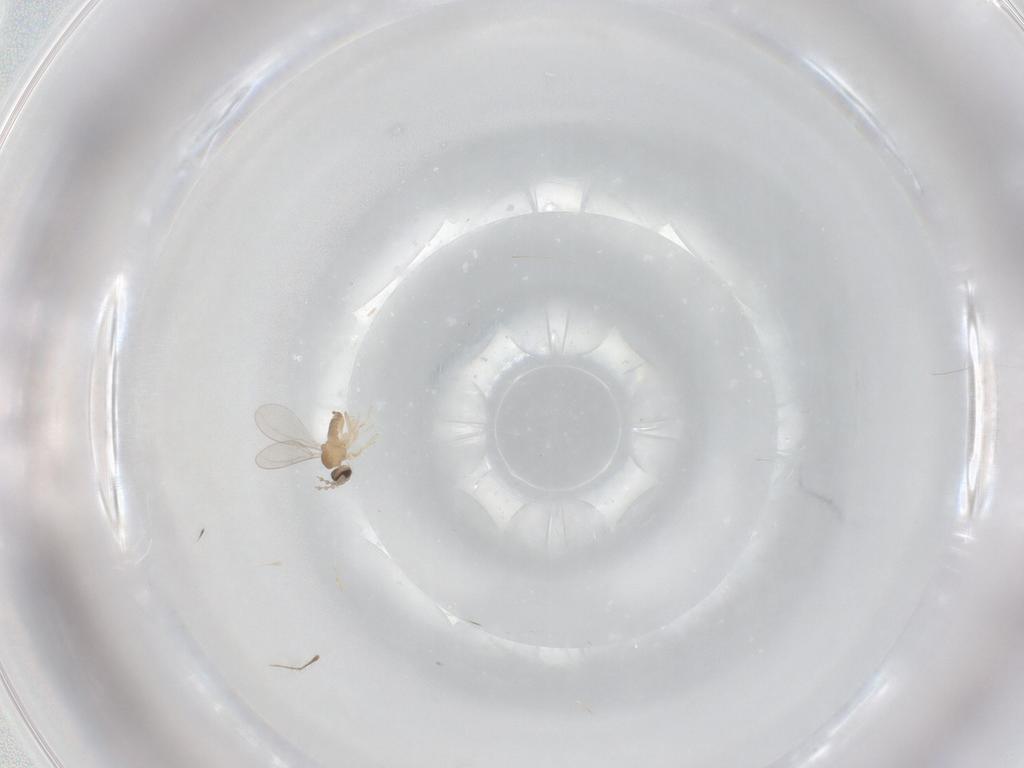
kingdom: Animalia
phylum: Arthropoda
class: Insecta
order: Diptera
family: Cecidomyiidae
